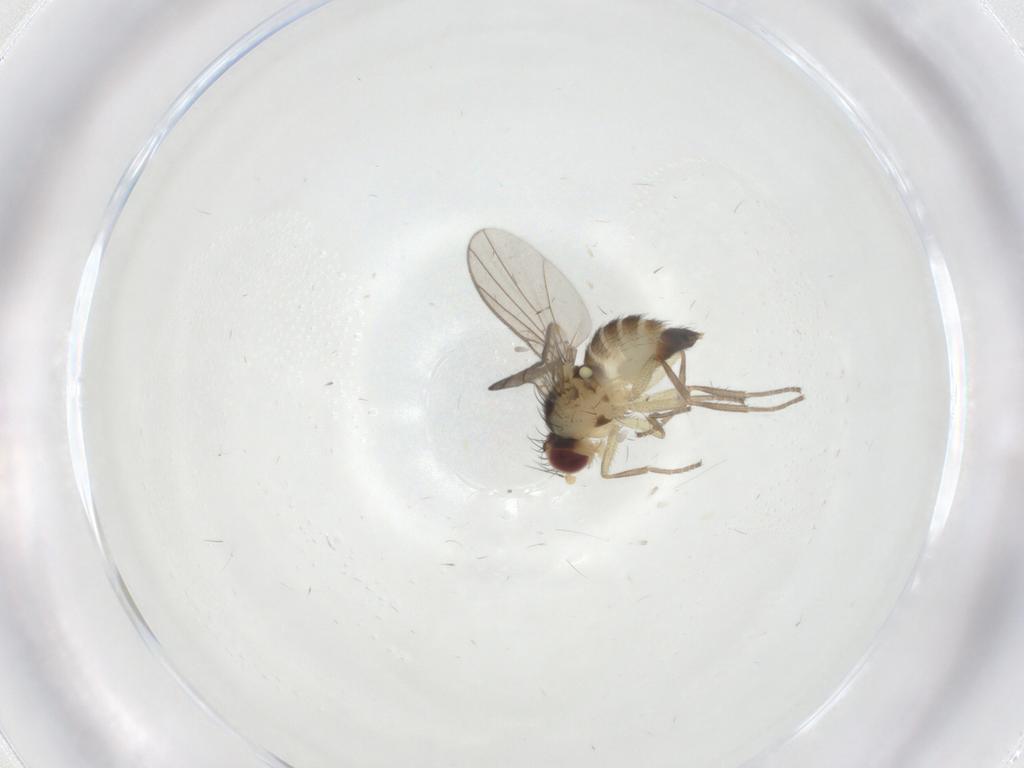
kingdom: Animalia
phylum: Arthropoda
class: Insecta
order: Diptera
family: Agromyzidae
